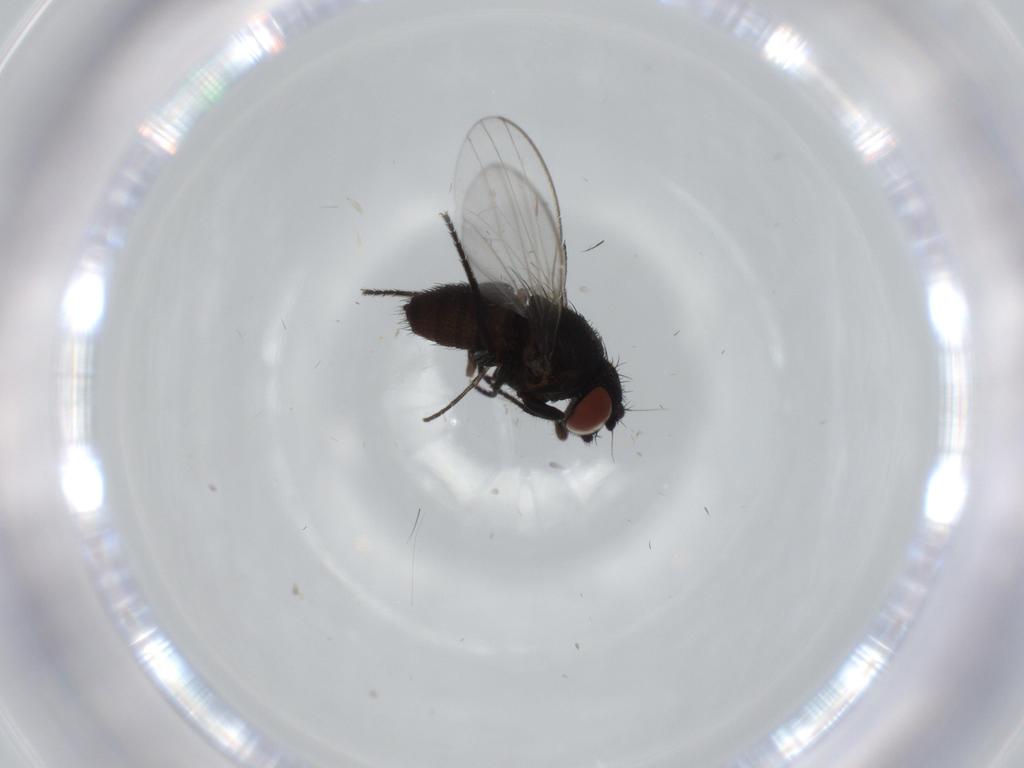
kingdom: Animalia
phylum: Arthropoda
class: Insecta
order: Diptera
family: Milichiidae
